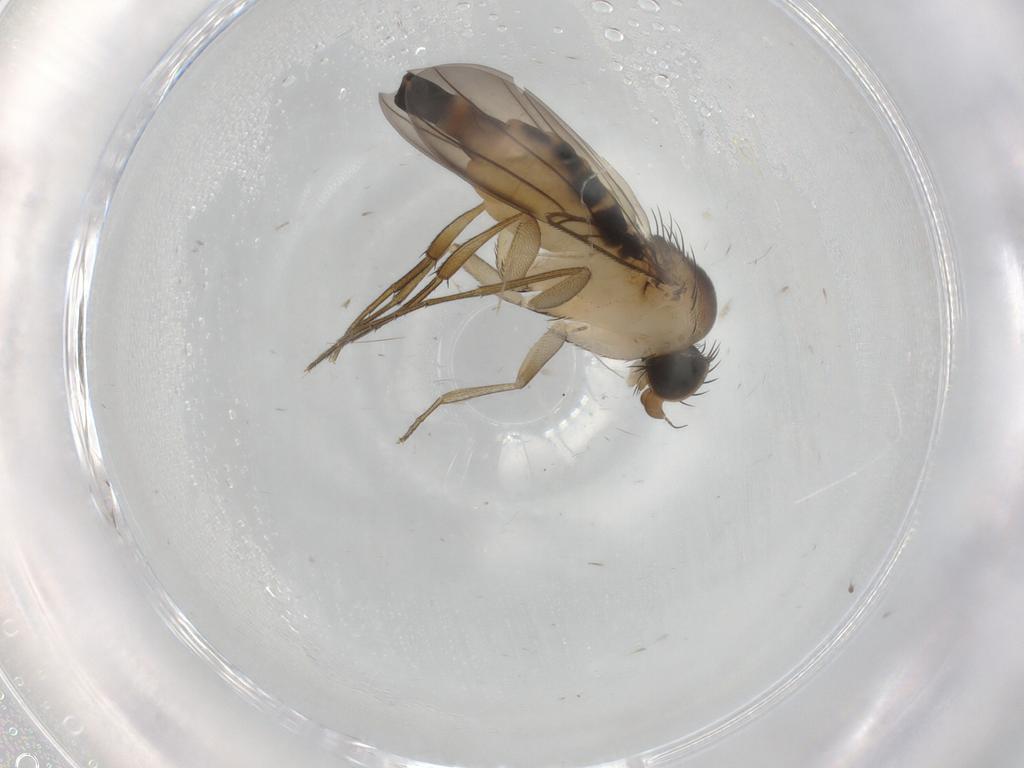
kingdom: Animalia
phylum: Arthropoda
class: Insecta
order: Diptera
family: Phoridae
